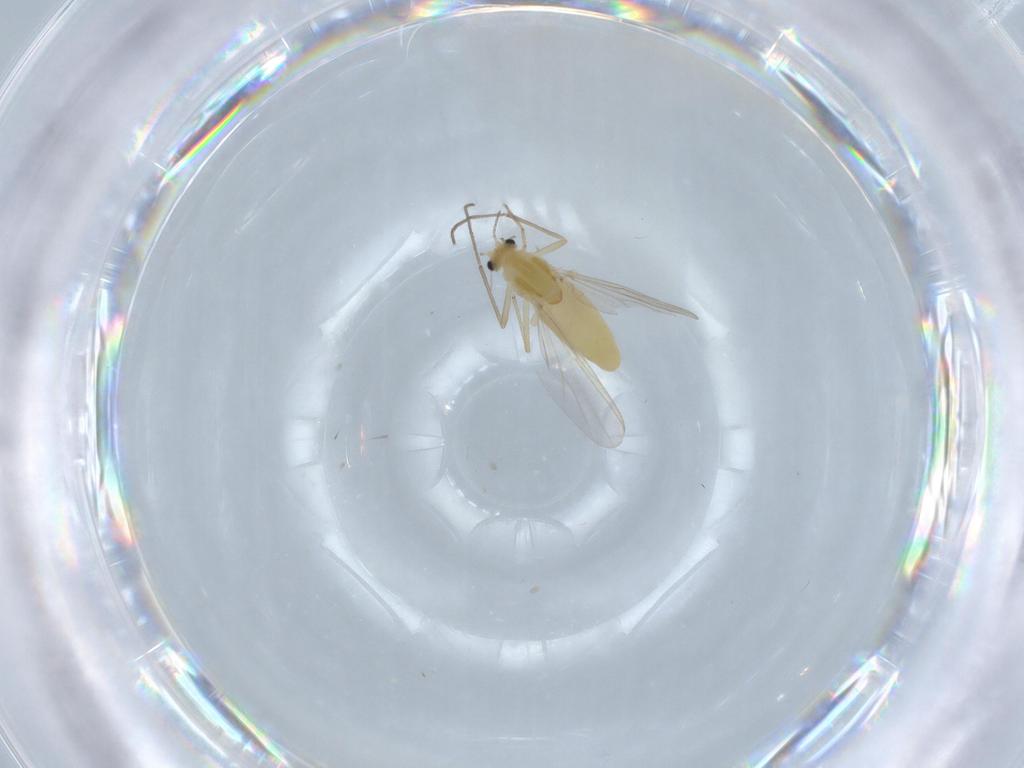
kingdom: Animalia
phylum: Arthropoda
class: Insecta
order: Diptera
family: Chironomidae
